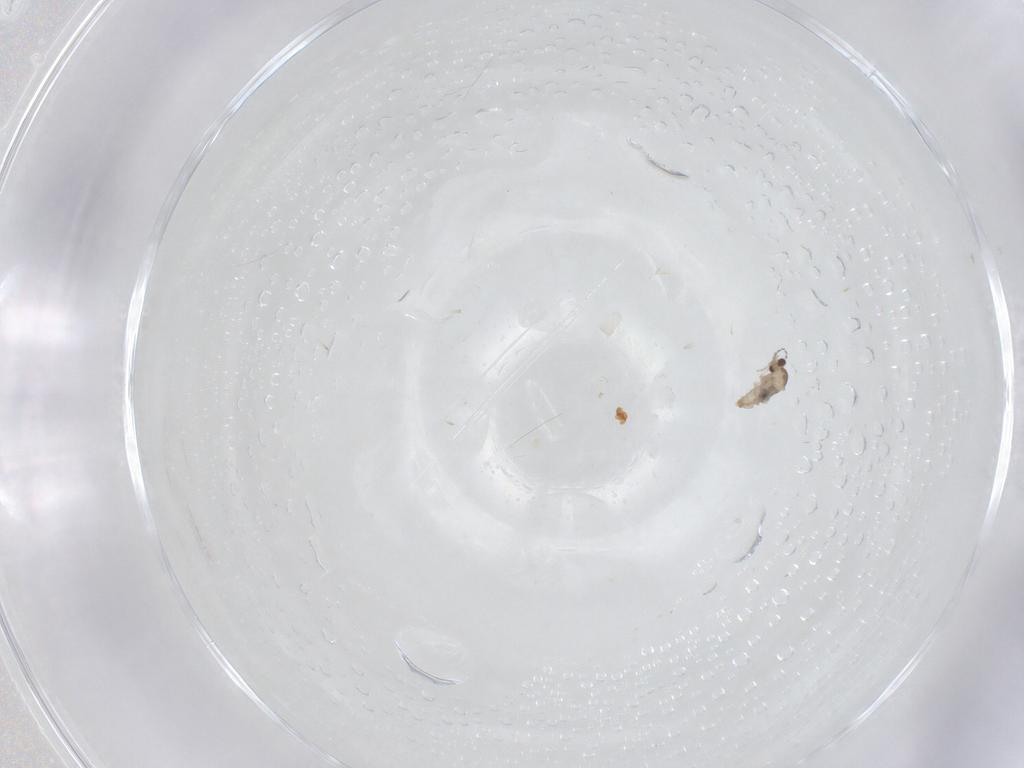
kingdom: Animalia
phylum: Arthropoda
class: Insecta
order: Diptera
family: Cecidomyiidae
